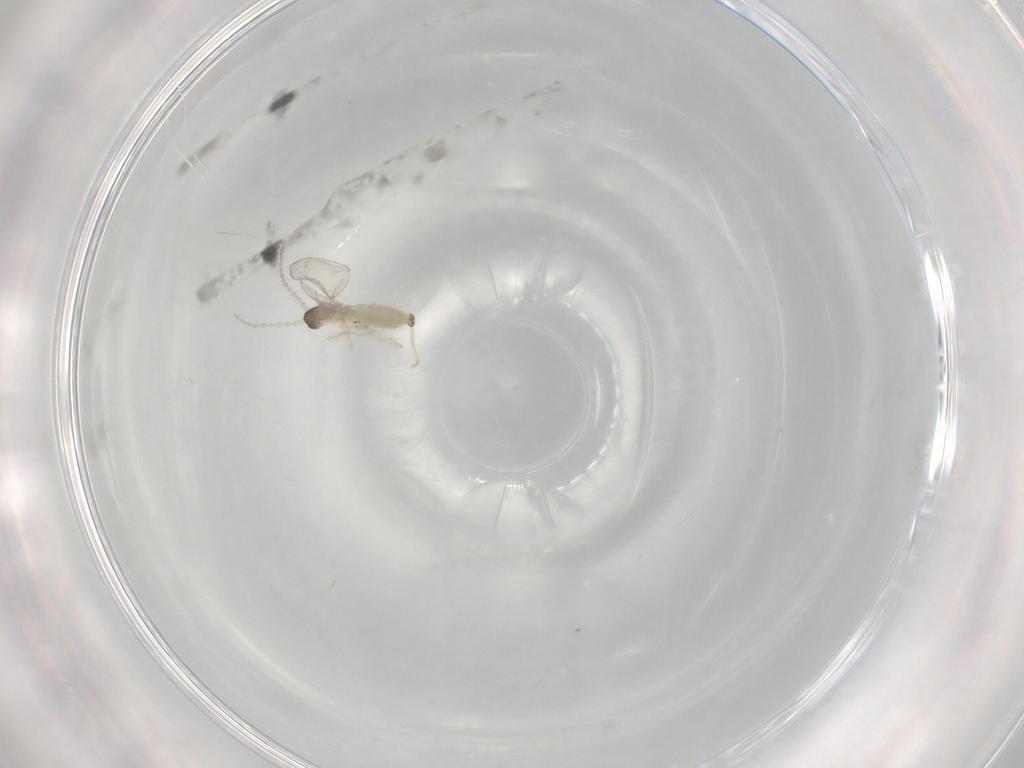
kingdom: Animalia
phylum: Arthropoda
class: Insecta
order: Diptera
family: Cecidomyiidae
